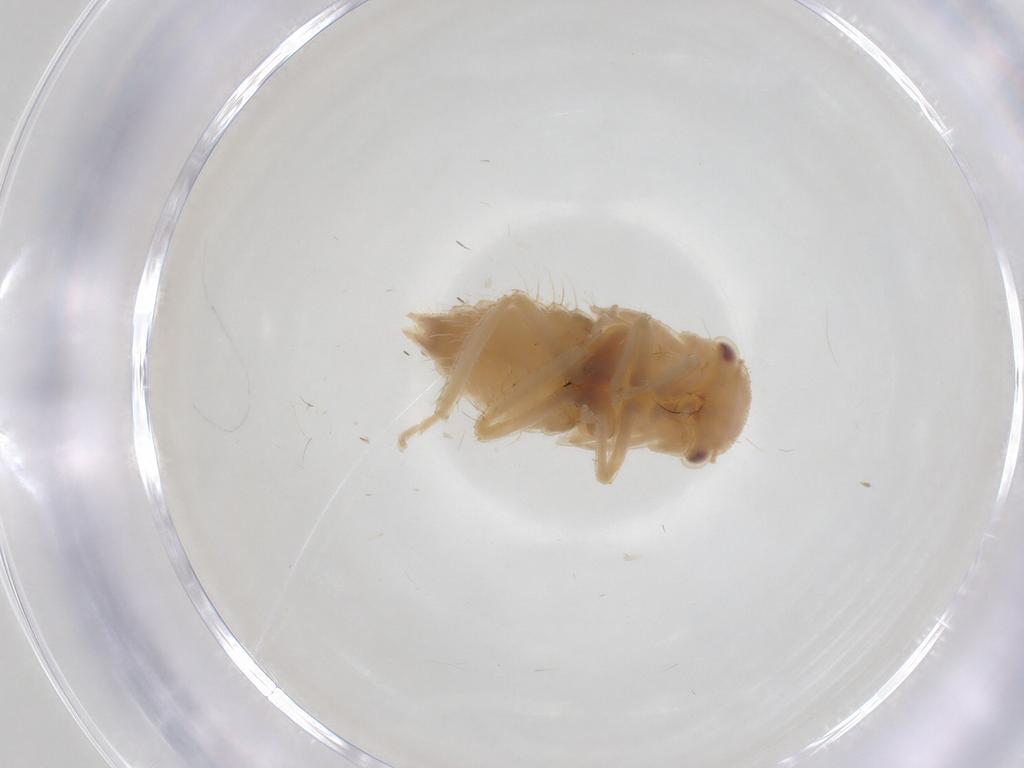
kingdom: Animalia
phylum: Arthropoda
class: Insecta
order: Hemiptera
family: Cicadellidae
